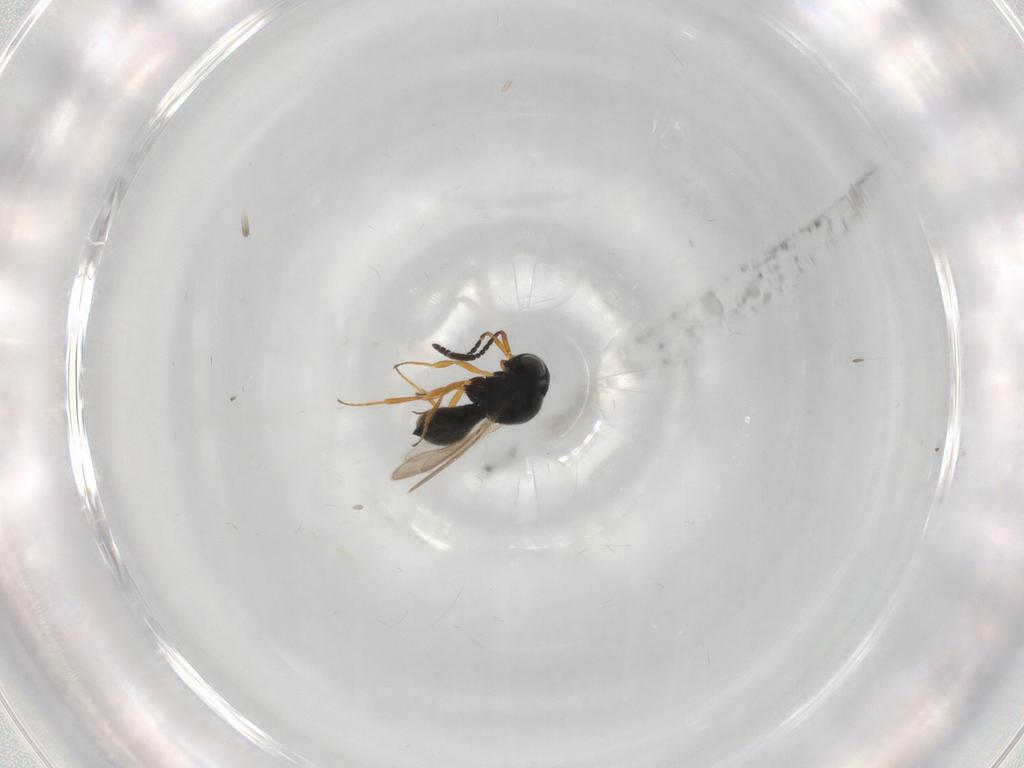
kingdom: Animalia
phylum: Arthropoda
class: Insecta
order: Hymenoptera
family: Scelionidae
